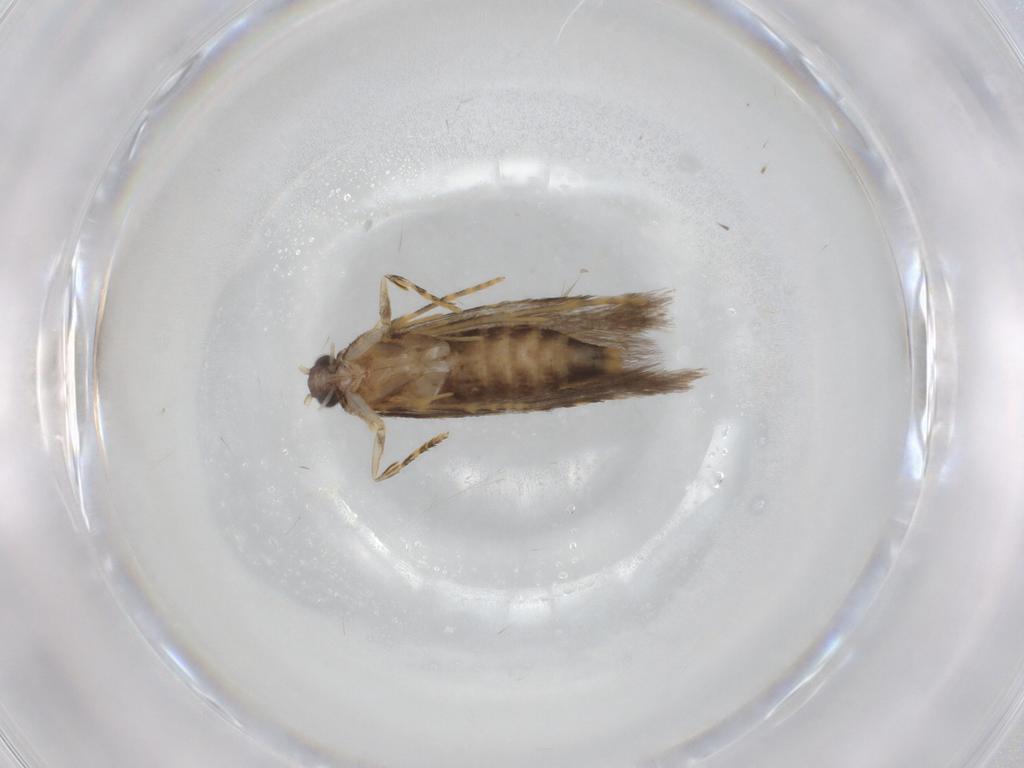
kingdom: Animalia
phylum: Arthropoda
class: Insecta
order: Lepidoptera
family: Tineidae
